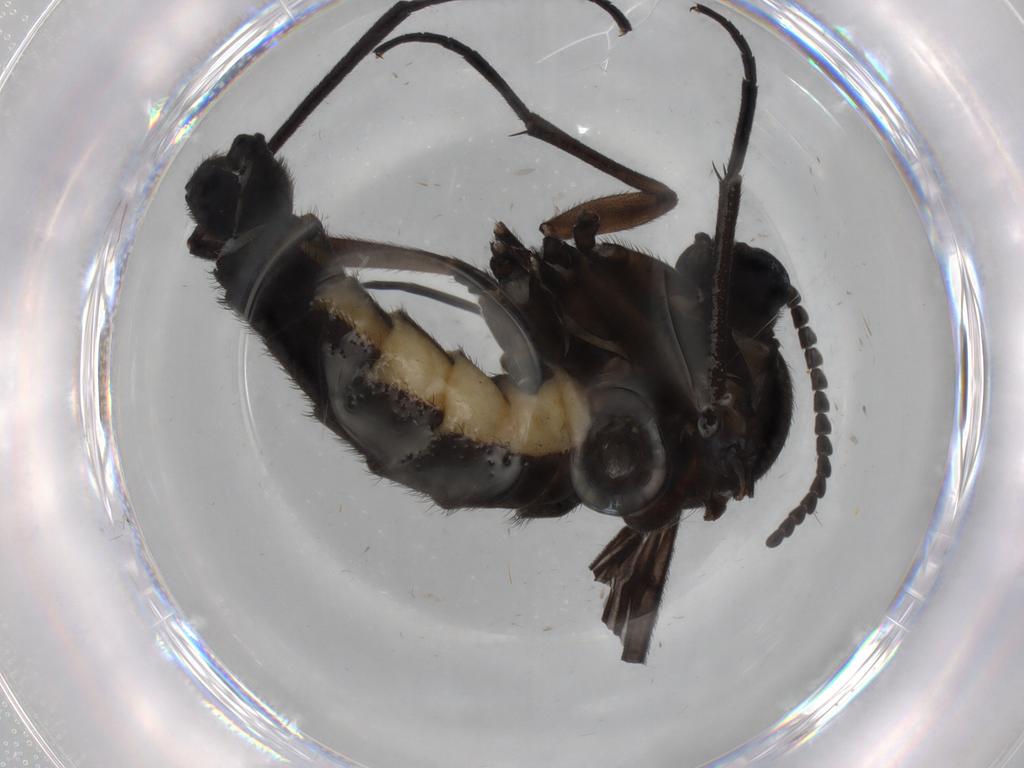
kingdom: Animalia
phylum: Arthropoda
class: Insecta
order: Diptera
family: Sciaridae
